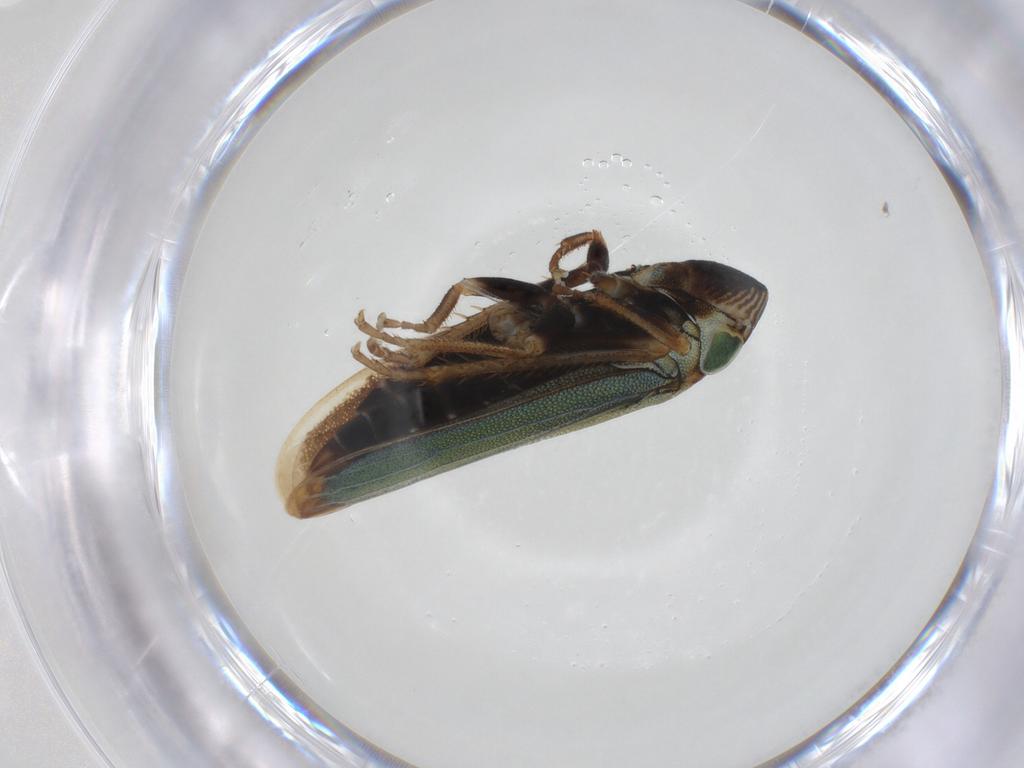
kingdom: Animalia
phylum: Arthropoda
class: Insecta
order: Hemiptera
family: Cicadellidae
